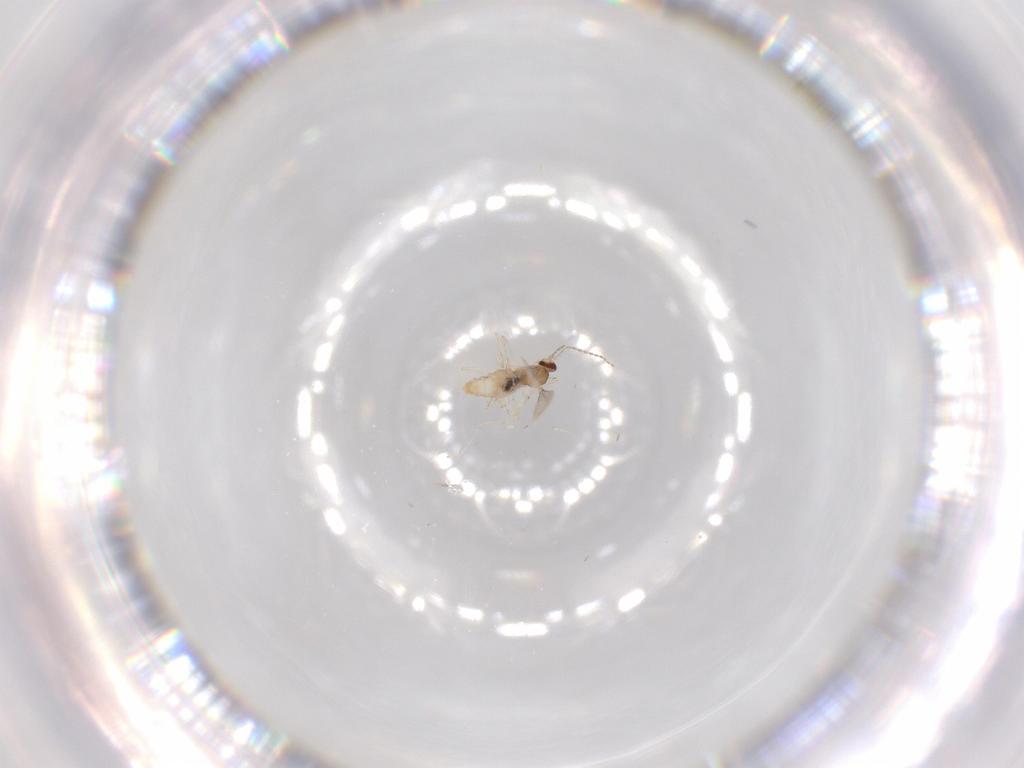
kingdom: Animalia
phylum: Arthropoda
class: Insecta
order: Diptera
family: Cecidomyiidae
